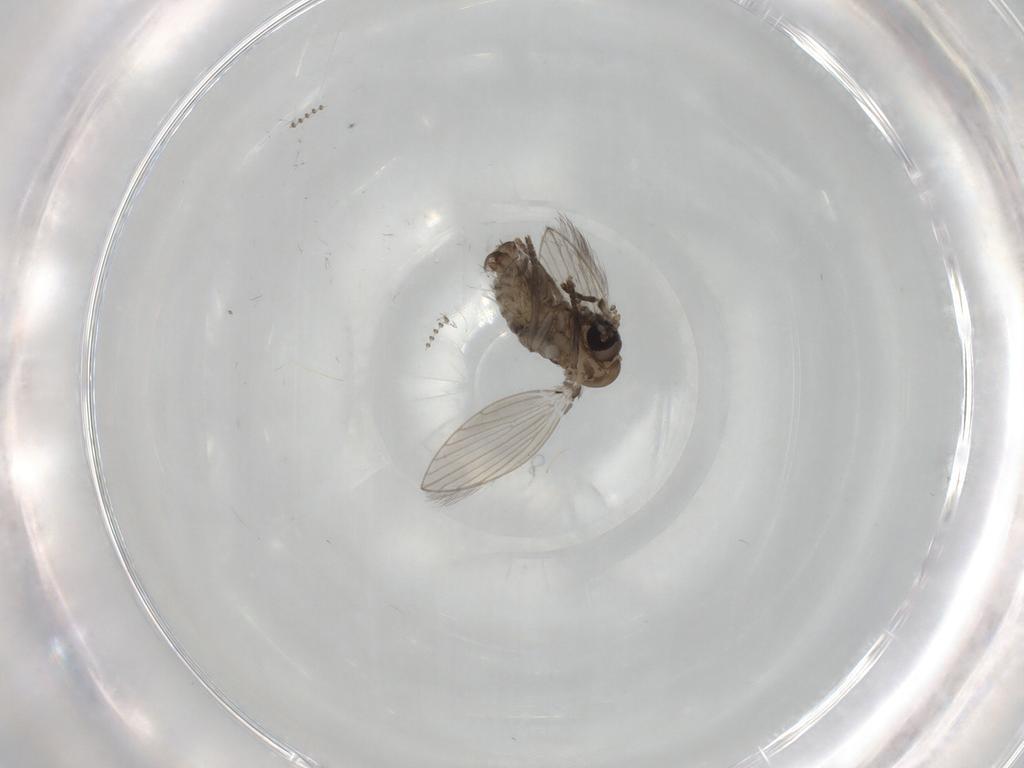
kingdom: Animalia
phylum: Arthropoda
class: Insecta
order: Diptera
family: Psychodidae
